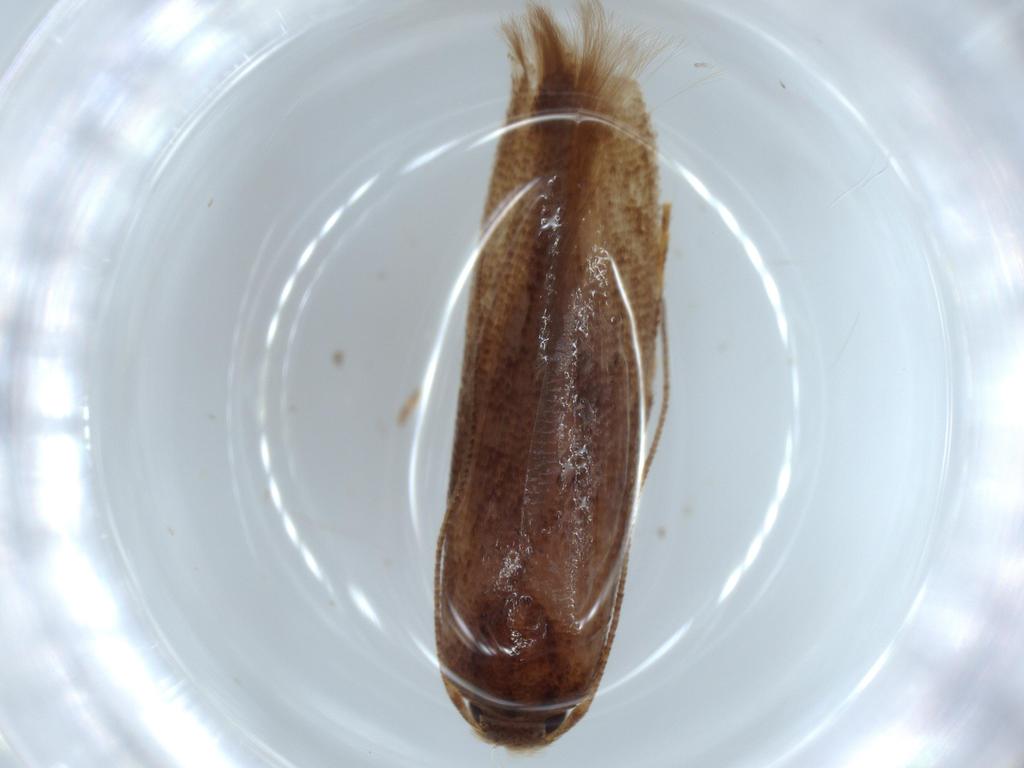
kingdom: Animalia
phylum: Arthropoda
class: Insecta
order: Lepidoptera
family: Stathmopodidae
